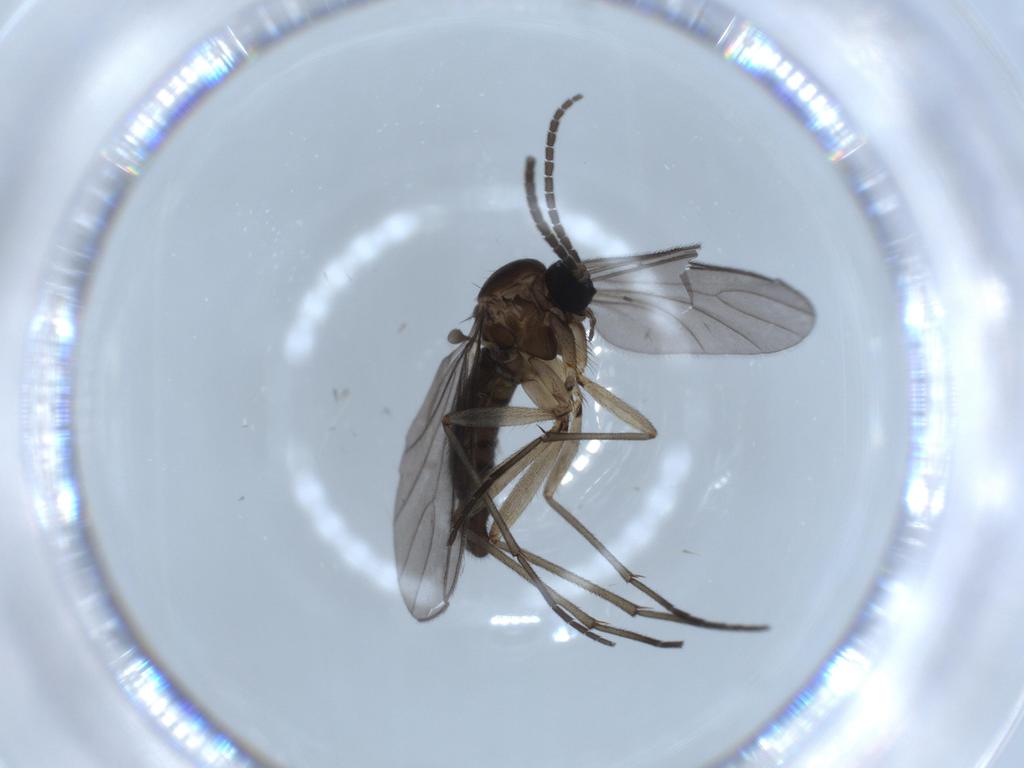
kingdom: Animalia
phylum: Arthropoda
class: Insecta
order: Diptera
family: Sciaridae
